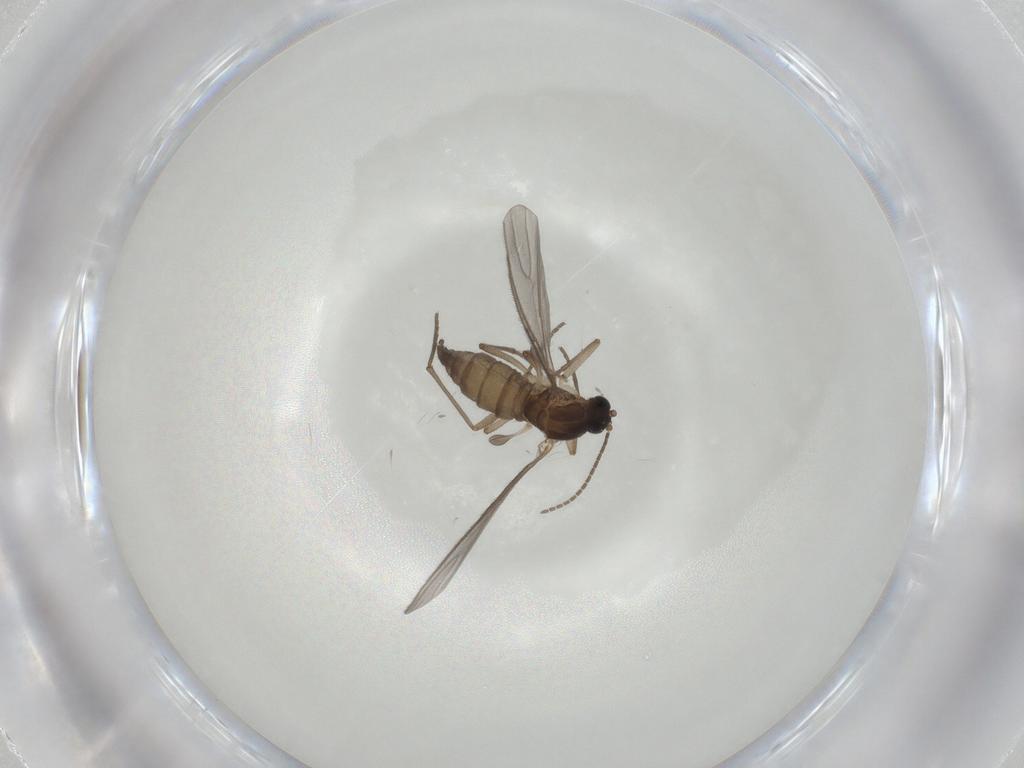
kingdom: Animalia
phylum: Arthropoda
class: Insecta
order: Diptera
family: Sciaridae
